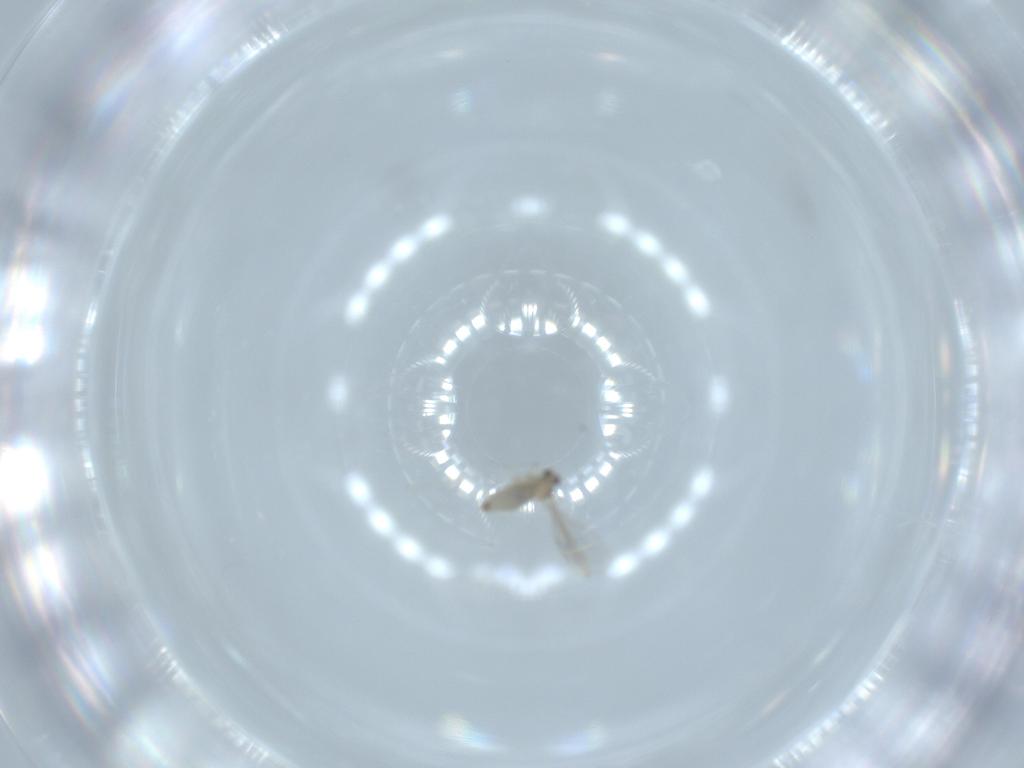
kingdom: Animalia
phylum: Arthropoda
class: Insecta
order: Diptera
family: Cecidomyiidae
